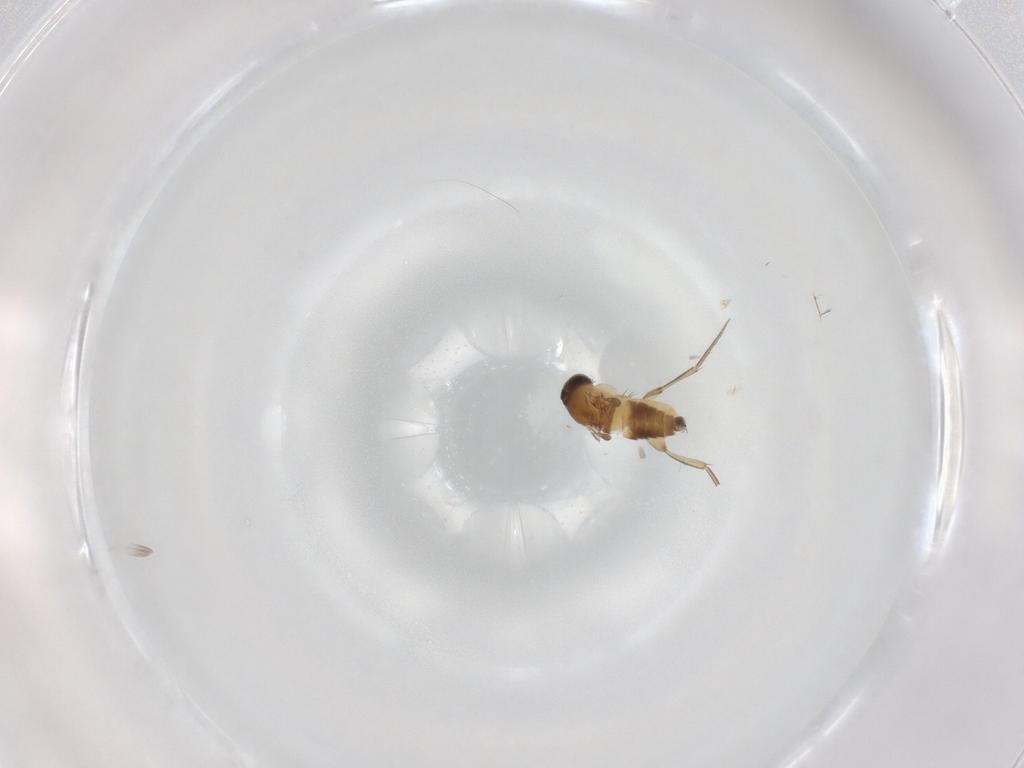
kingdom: Animalia
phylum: Arthropoda
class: Insecta
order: Diptera
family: Phoridae
